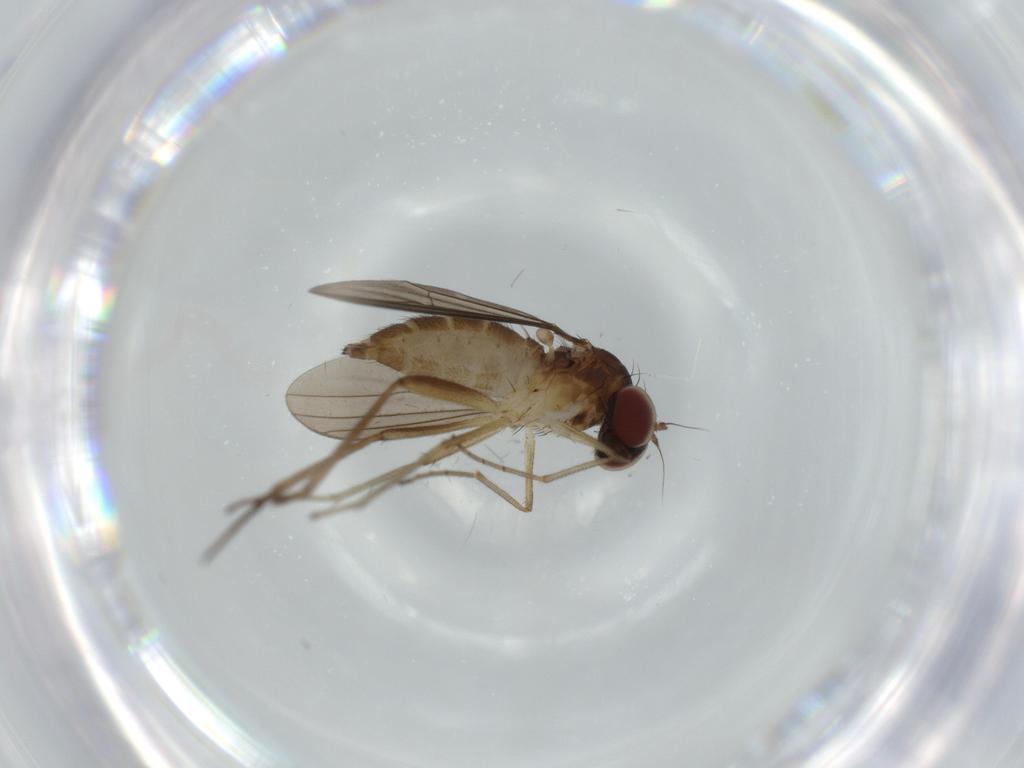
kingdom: Animalia
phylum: Arthropoda
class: Insecta
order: Diptera
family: Dolichopodidae
